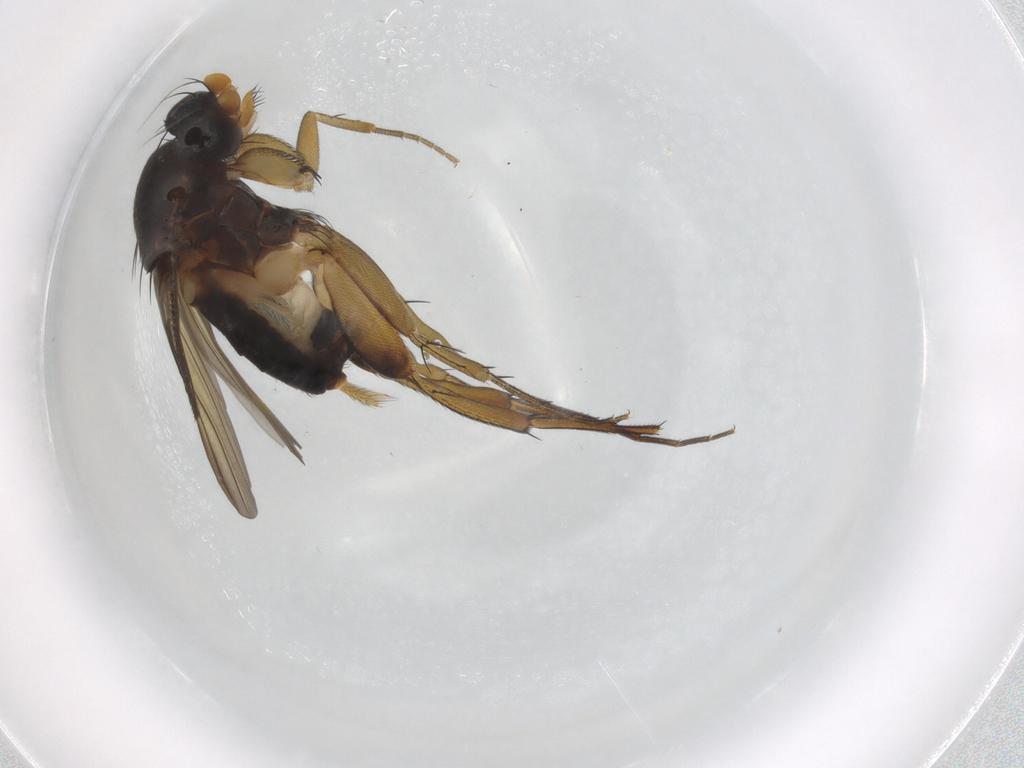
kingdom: Animalia
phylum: Arthropoda
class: Insecta
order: Diptera
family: Phoridae
